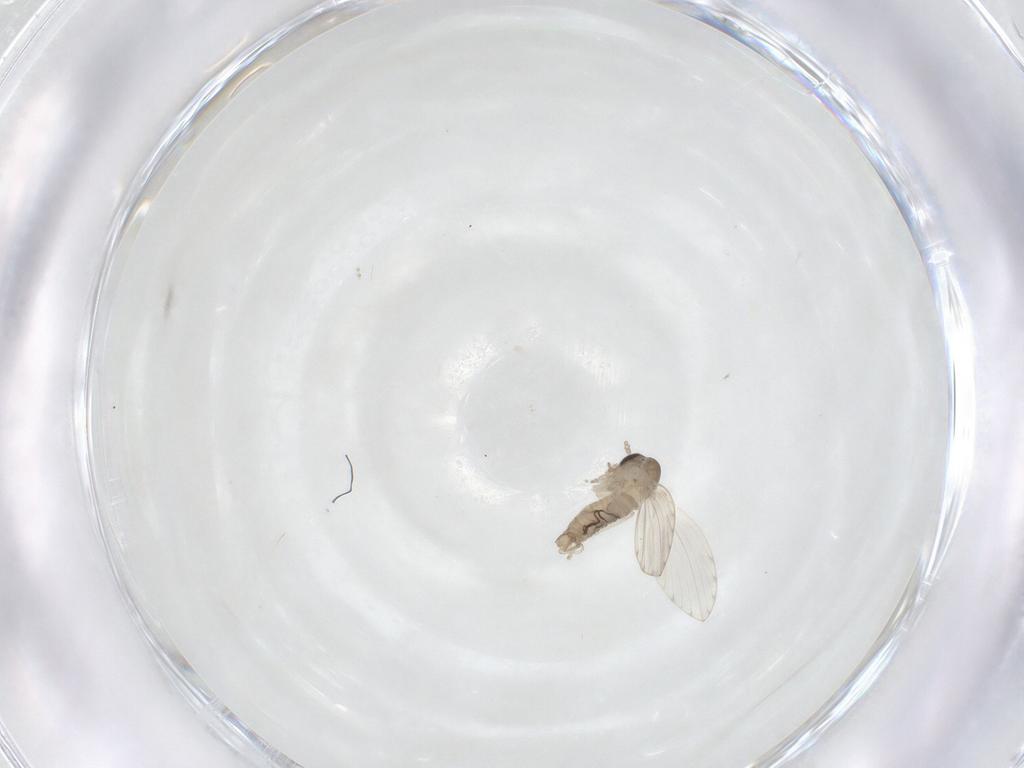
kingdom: Animalia
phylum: Arthropoda
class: Insecta
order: Diptera
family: Psychodidae
